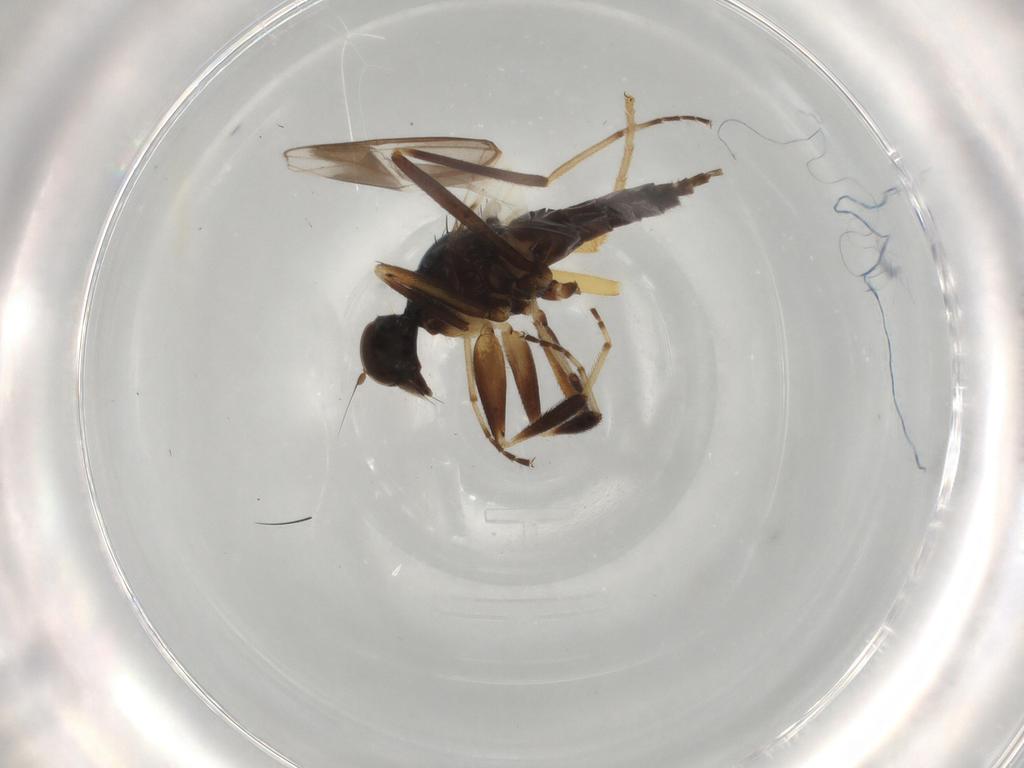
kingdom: Animalia
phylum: Arthropoda
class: Insecta
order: Diptera
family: Hybotidae
